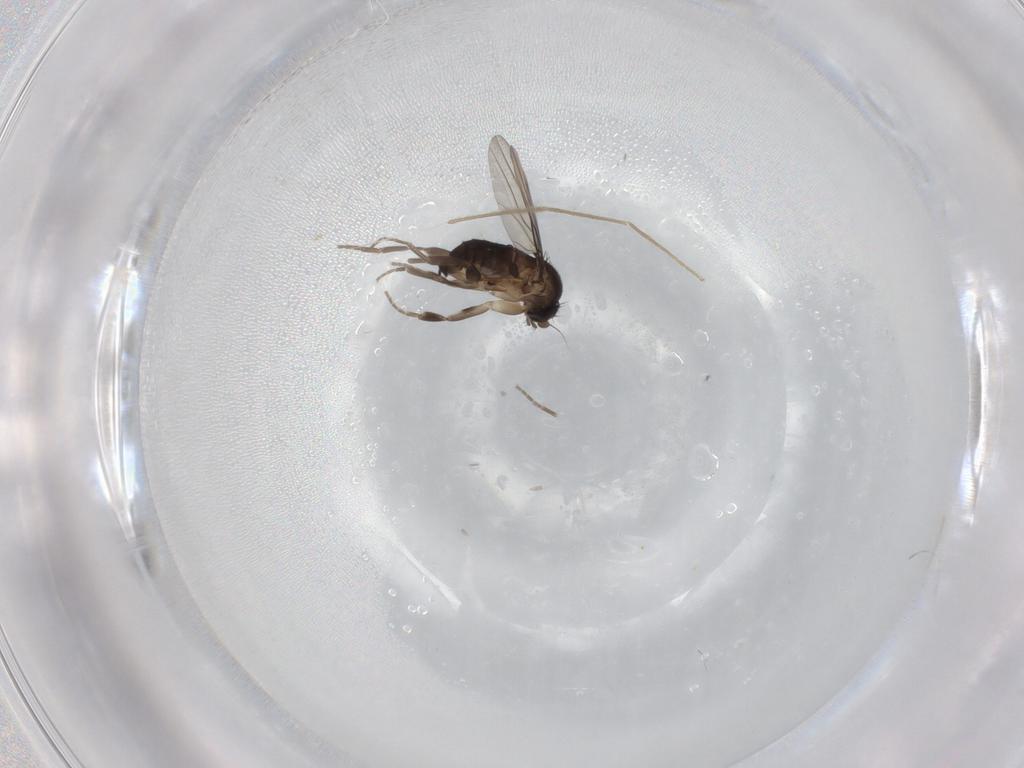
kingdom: Animalia
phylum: Arthropoda
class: Insecta
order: Diptera
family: Phoridae
